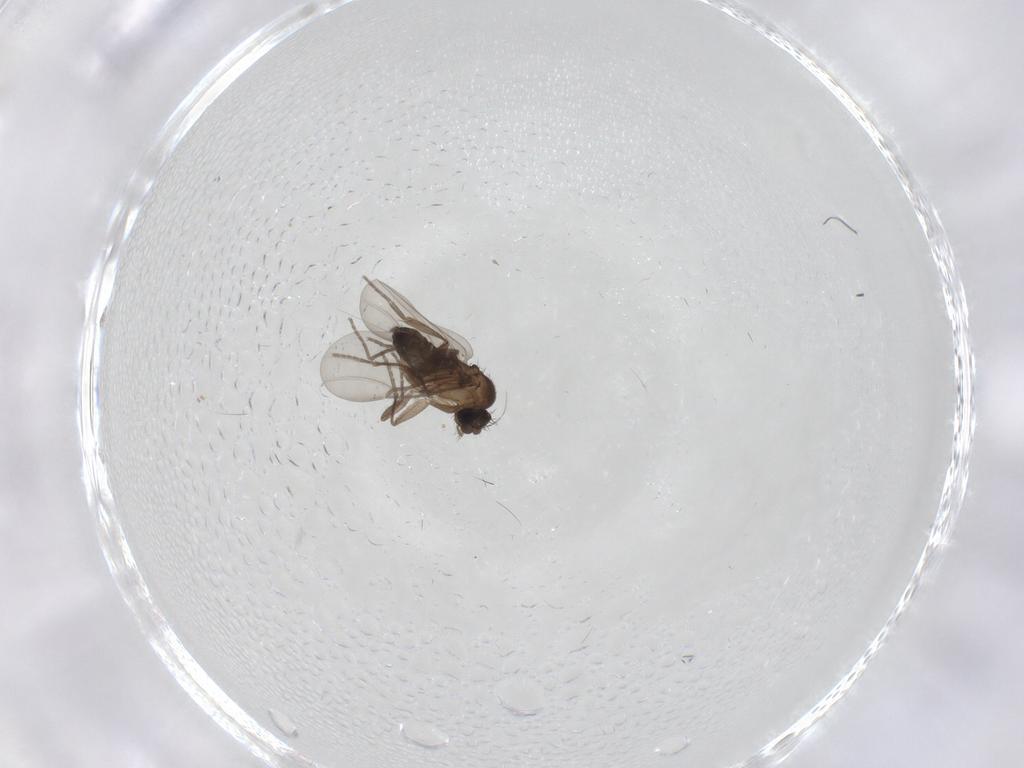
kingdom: Animalia
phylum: Arthropoda
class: Insecta
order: Diptera
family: Phoridae
